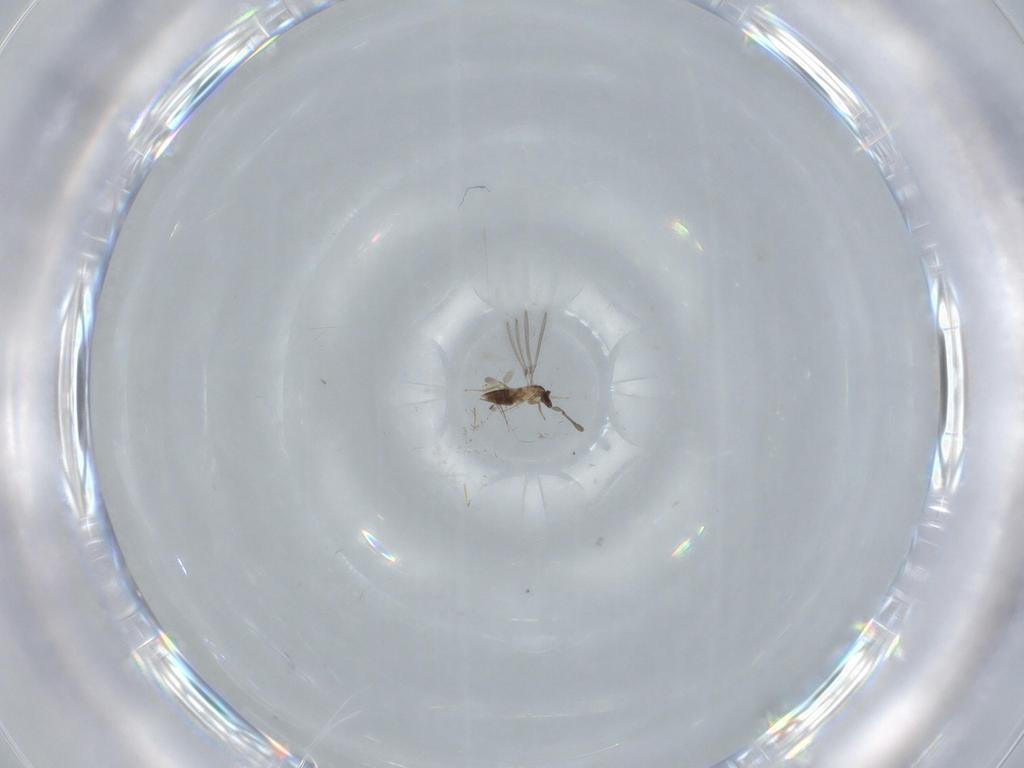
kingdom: Animalia
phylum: Arthropoda
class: Insecta
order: Hymenoptera
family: Mymaridae
